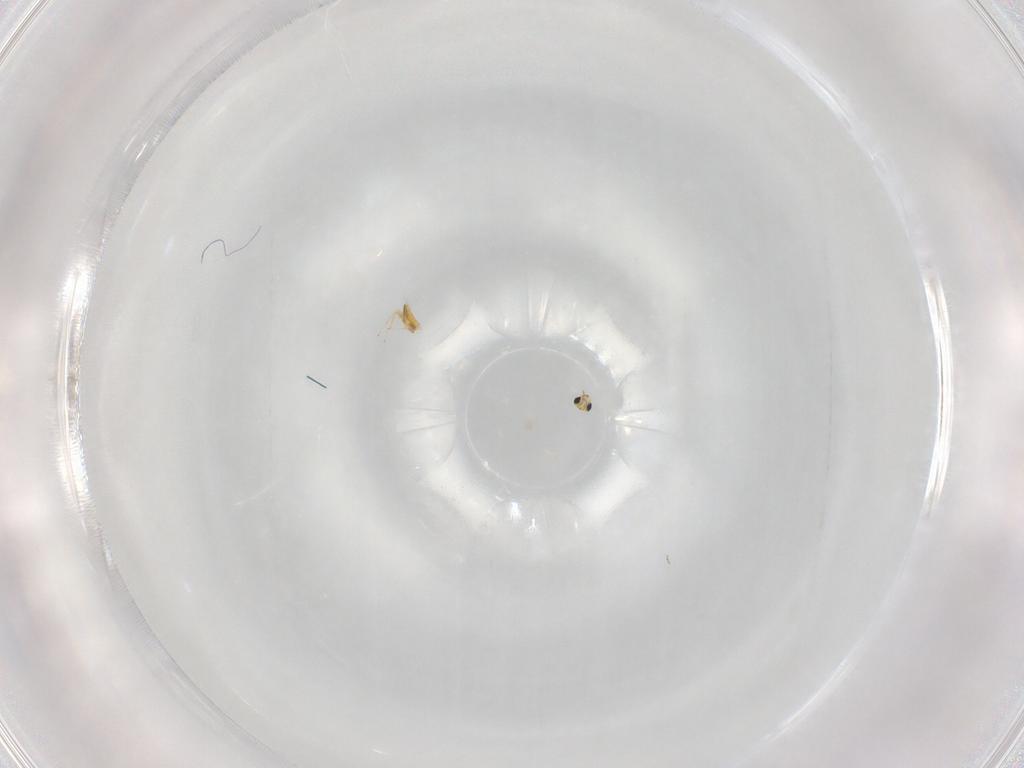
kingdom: Animalia
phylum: Arthropoda
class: Insecta
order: Hymenoptera
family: Trichogrammatidae
